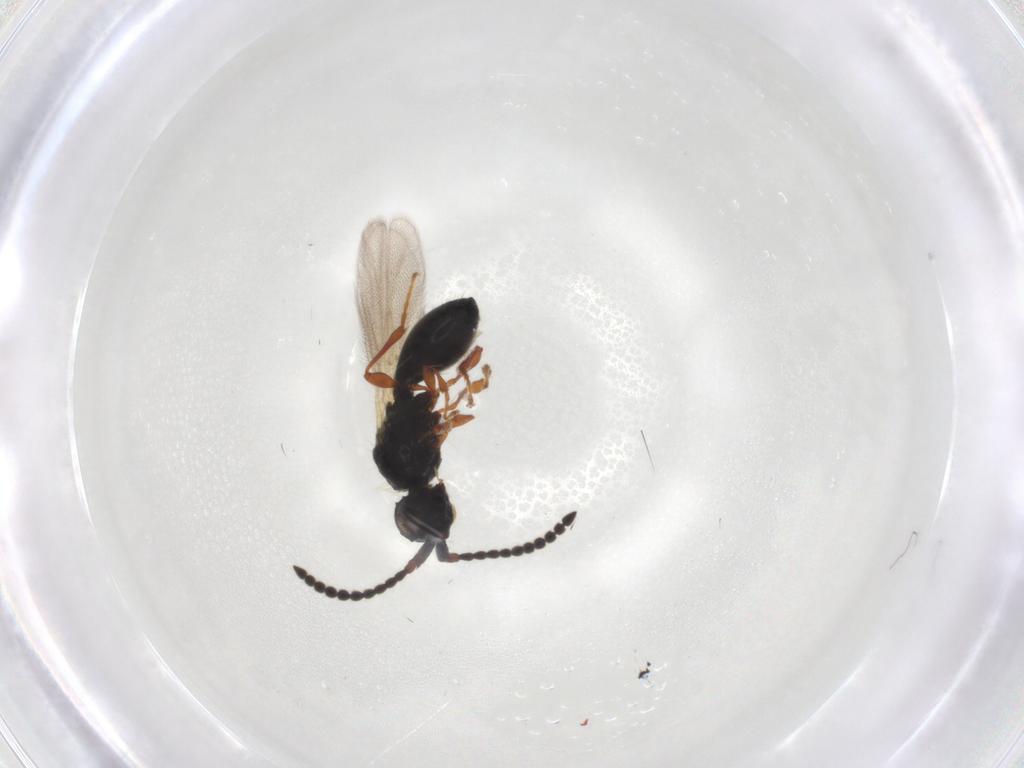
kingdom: Animalia
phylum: Arthropoda
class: Insecta
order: Hymenoptera
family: Diapriidae
